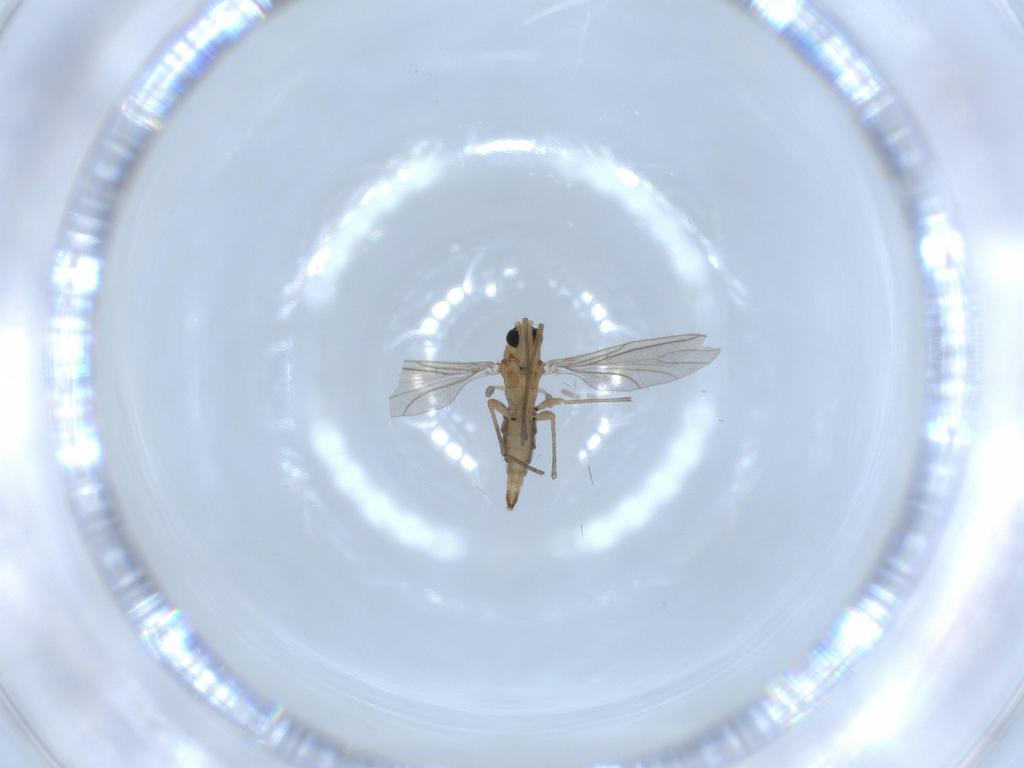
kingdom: Animalia
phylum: Arthropoda
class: Insecta
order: Diptera
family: Sciaridae
